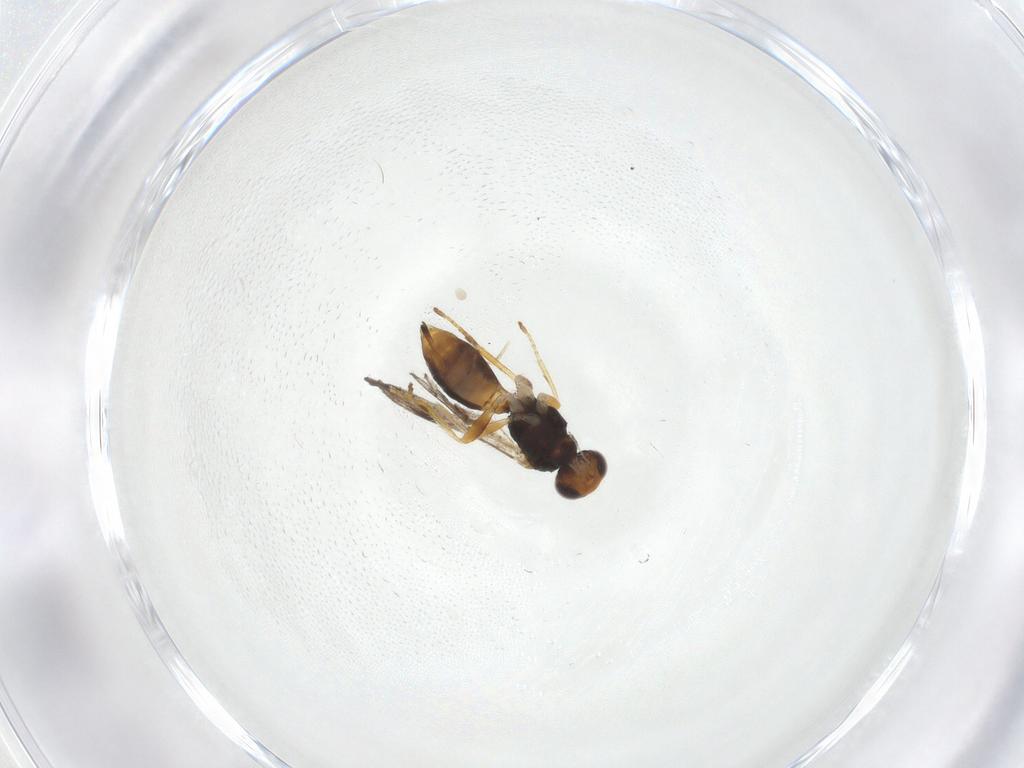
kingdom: Animalia
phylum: Arthropoda
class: Insecta
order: Hymenoptera
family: Braconidae
